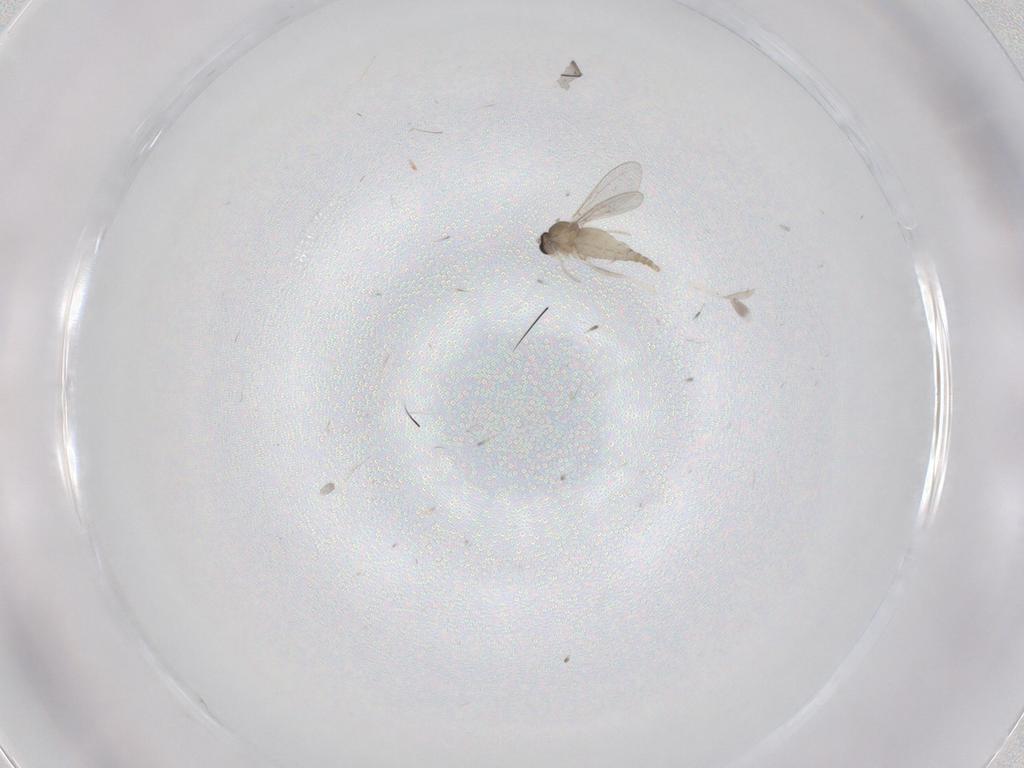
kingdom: Animalia
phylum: Arthropoda
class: Insecta
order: Diptera
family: Cecidomyiidae
